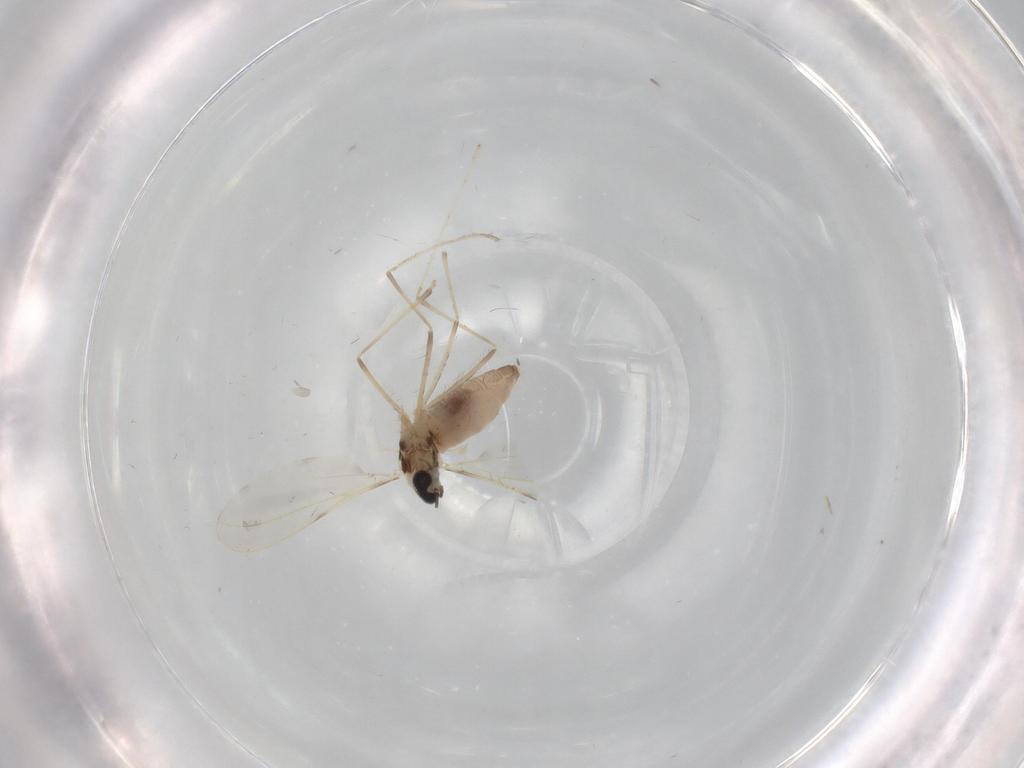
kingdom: Animalia
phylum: Arthropoda
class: Insecta
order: Diptera
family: Cecidomyiidae
